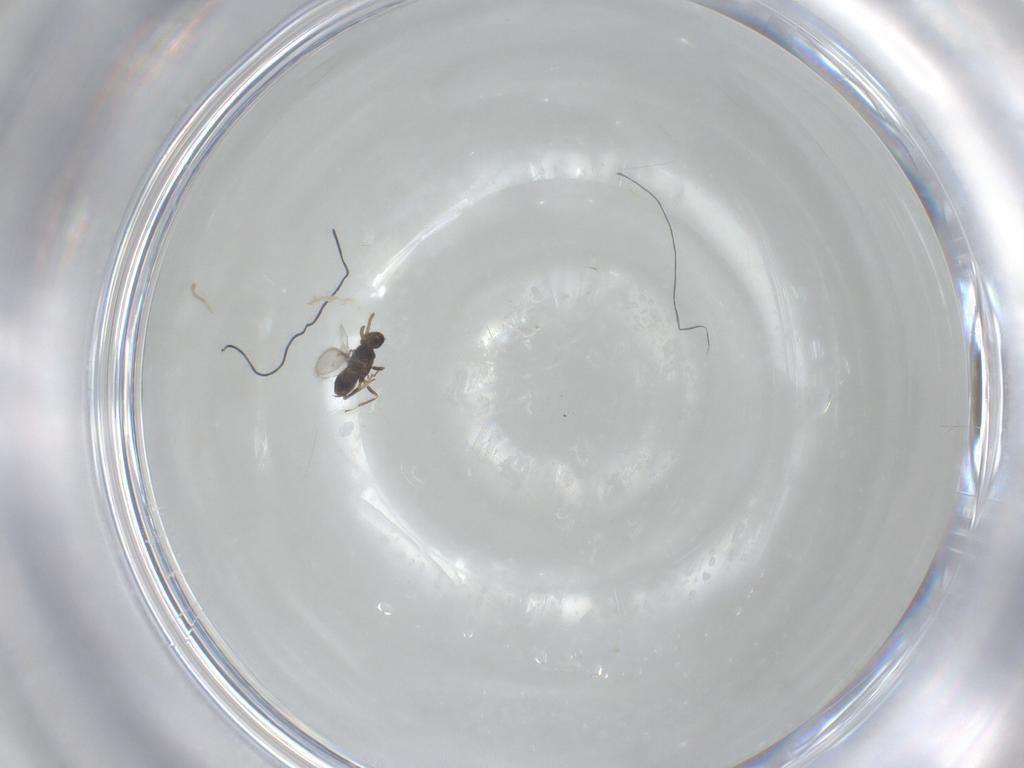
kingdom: Animalia
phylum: Arthropoda
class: Insecta
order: Hymenoptera
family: Aphelinidae
